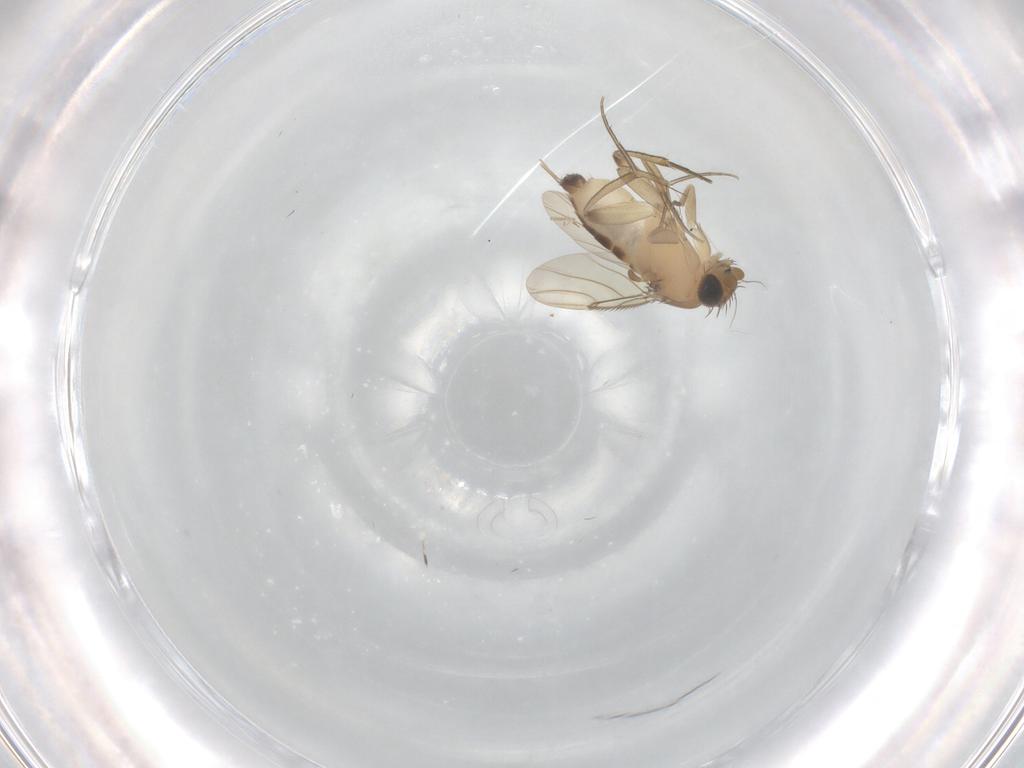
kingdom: Animalia
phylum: Arthropoda
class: Insecta
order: Diptera
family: Phoridae
